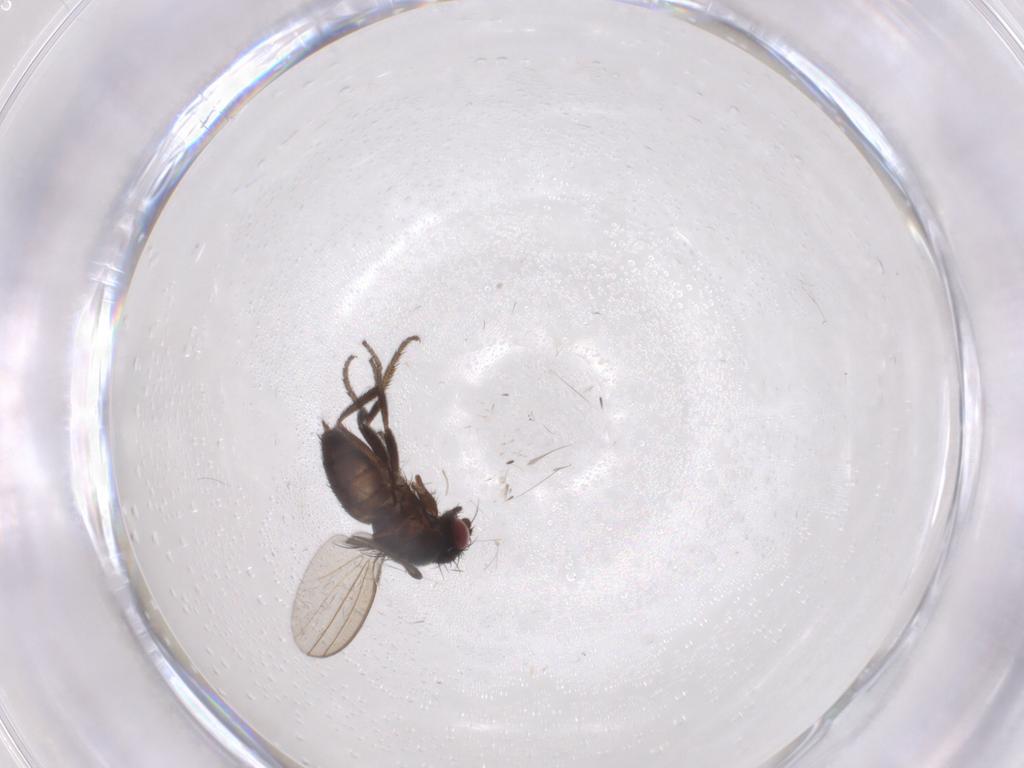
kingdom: Animalia
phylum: Arthropoda
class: Insecta
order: Diptera
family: Milichiidae
